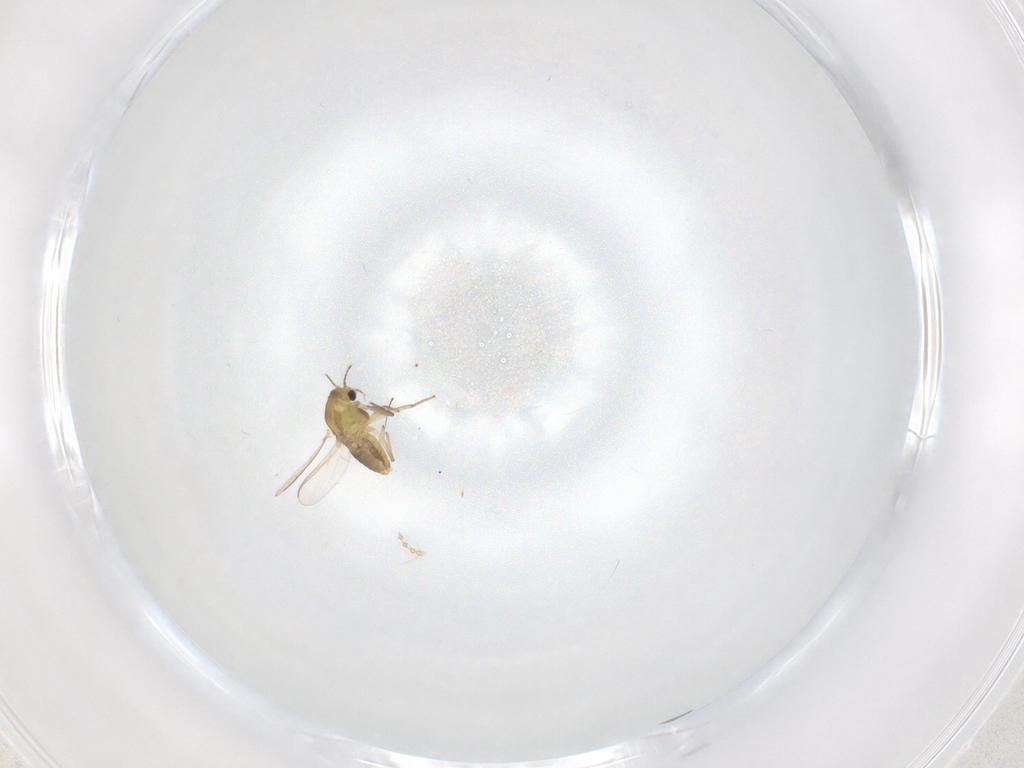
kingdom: Animalia
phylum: Arthropoda
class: Insecta
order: Diptera
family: Chironomidae
